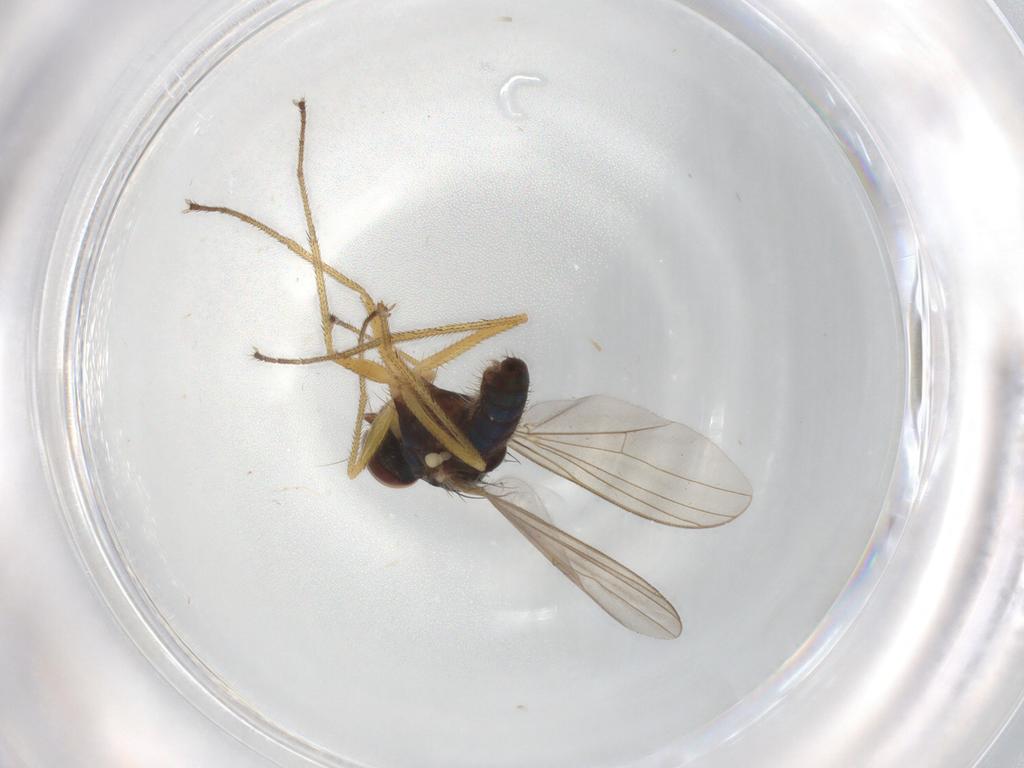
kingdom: Animalia
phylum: Arthropoda
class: Insecta
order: Diptera
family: Dolichopodidae
